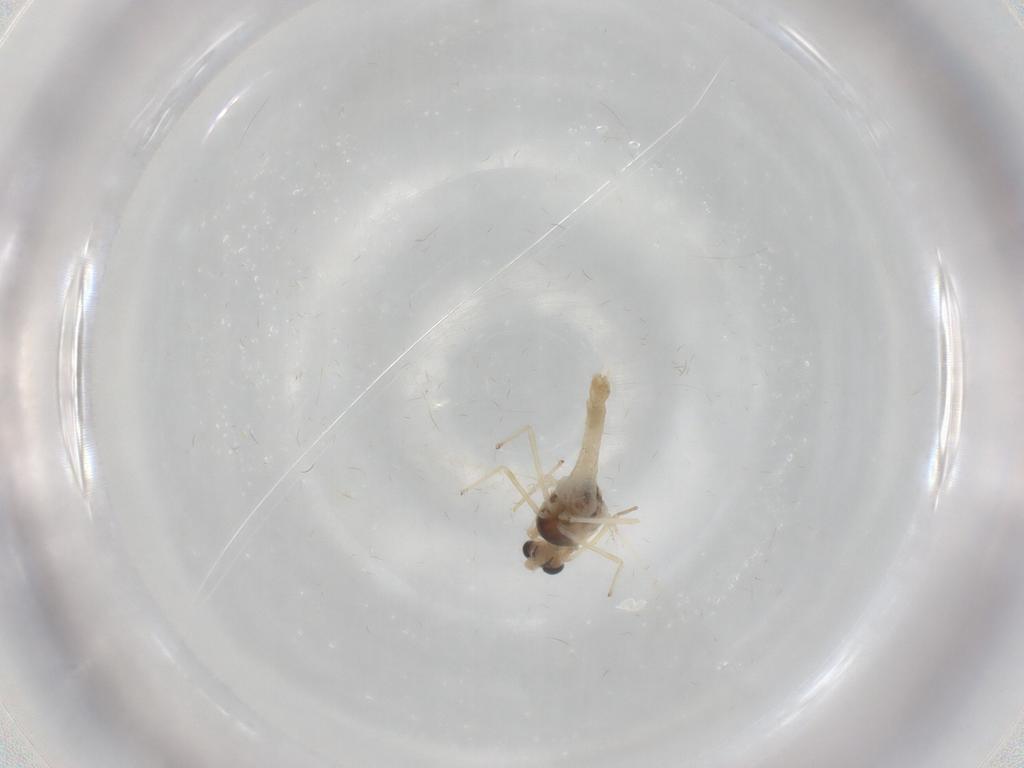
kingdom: Animalia
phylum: Arthropoda
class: Insecta
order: Diptera
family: Chironomidae
